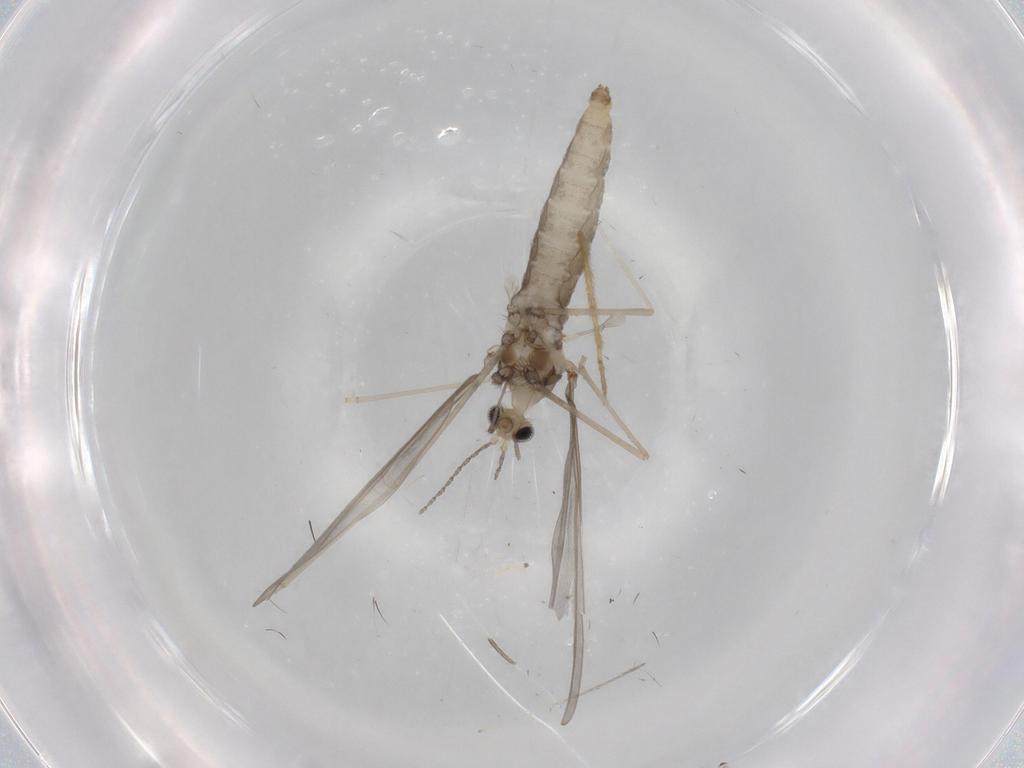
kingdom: Animalia
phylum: Arthropoda
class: Insecta
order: Diptera
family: Cecidomyiidae
